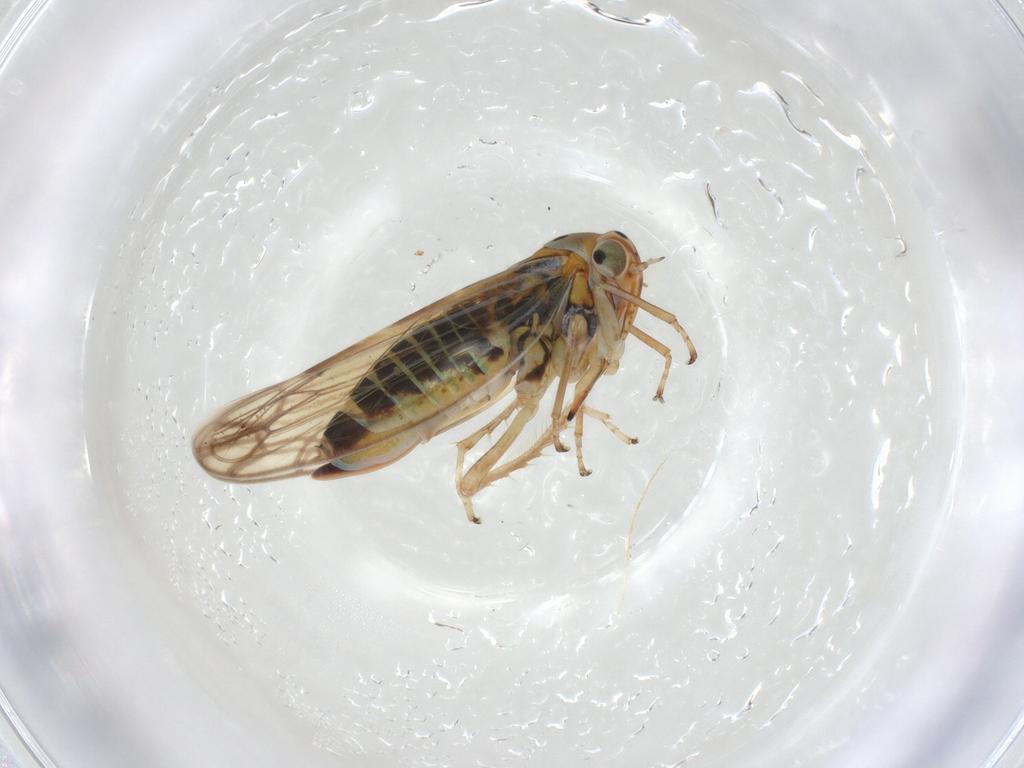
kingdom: Animalia
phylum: Arthropoda
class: Insecta
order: Hemiptera
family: Cicadellidae
